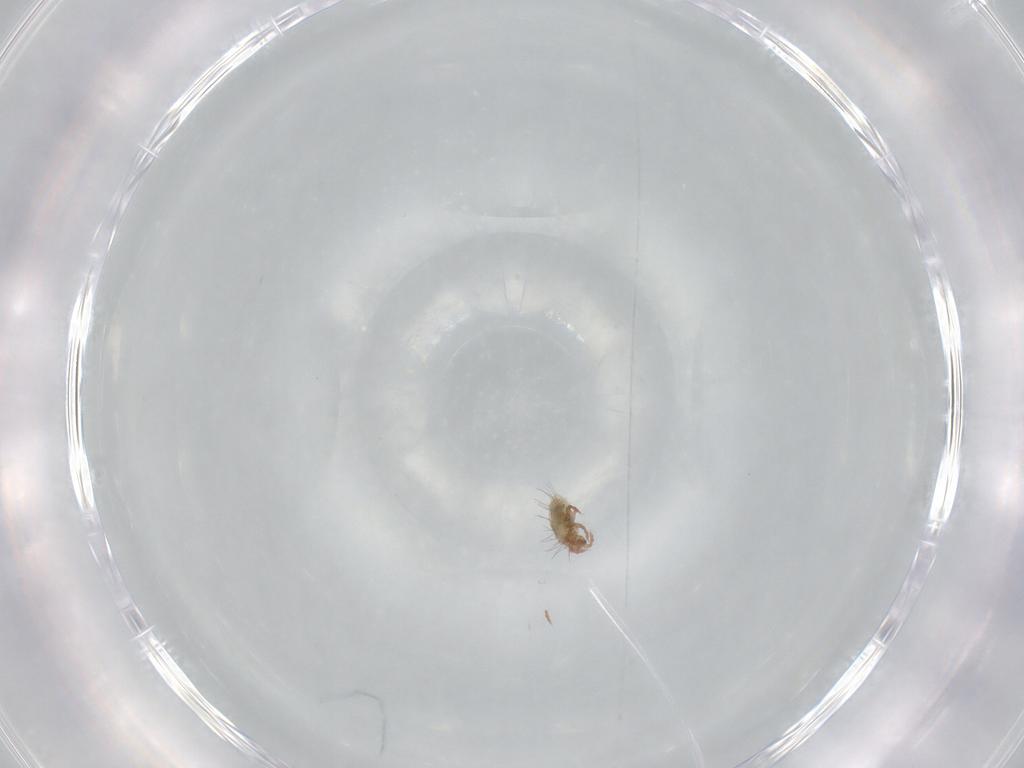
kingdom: Animalia
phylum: Arthropoda
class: Arachnida
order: Sarcoptiformes
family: Mochlozetidae
